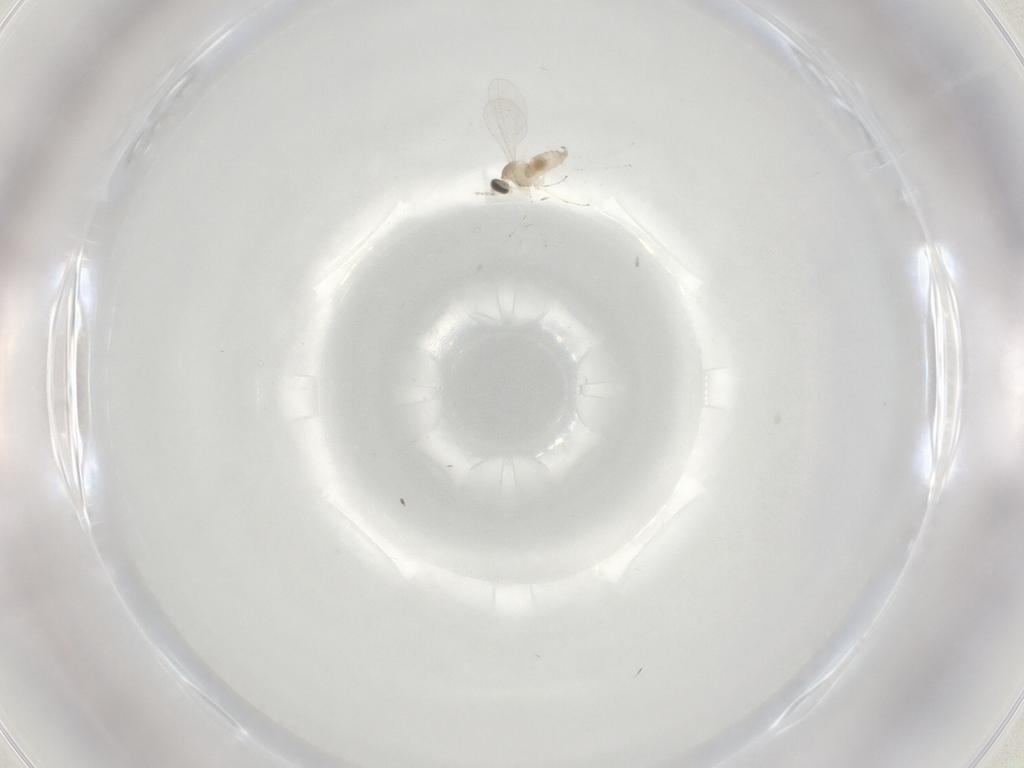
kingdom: Animalia
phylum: Arthropoda
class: Insecta
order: Diptera
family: Cecidomyiidae
